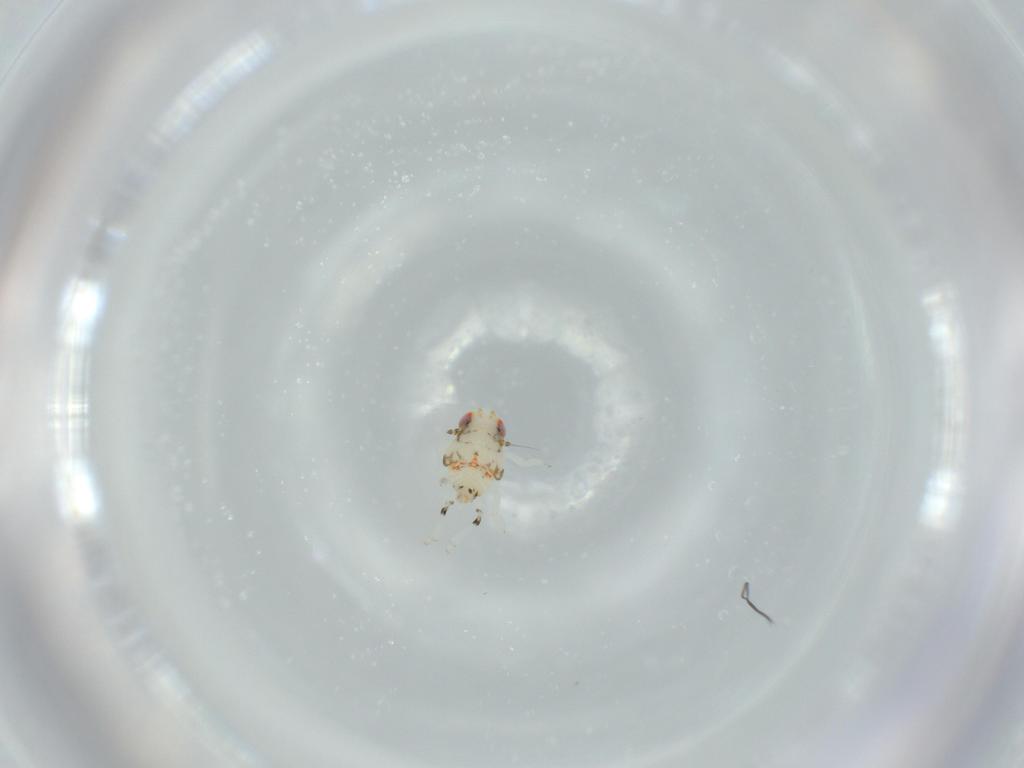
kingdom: Animalia
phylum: Arthropoda
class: Insecta
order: Hemiptera
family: Nogodinidae
